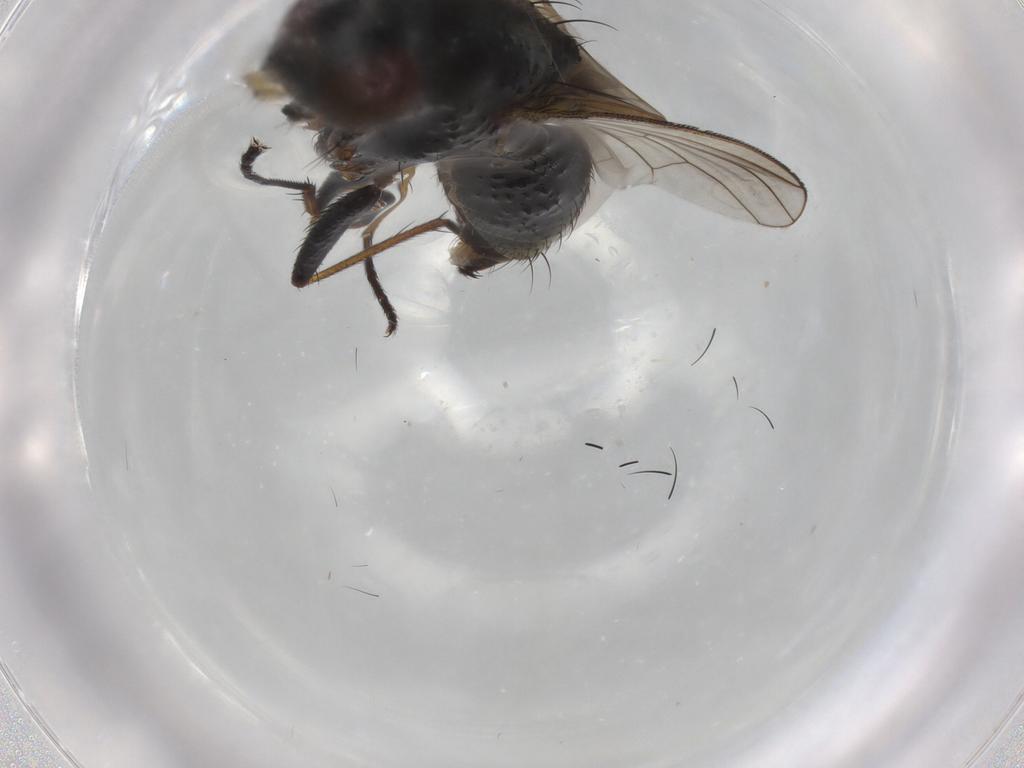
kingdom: Animalia
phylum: Arthropoda
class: Insecta
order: Diptera
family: Muscidae
